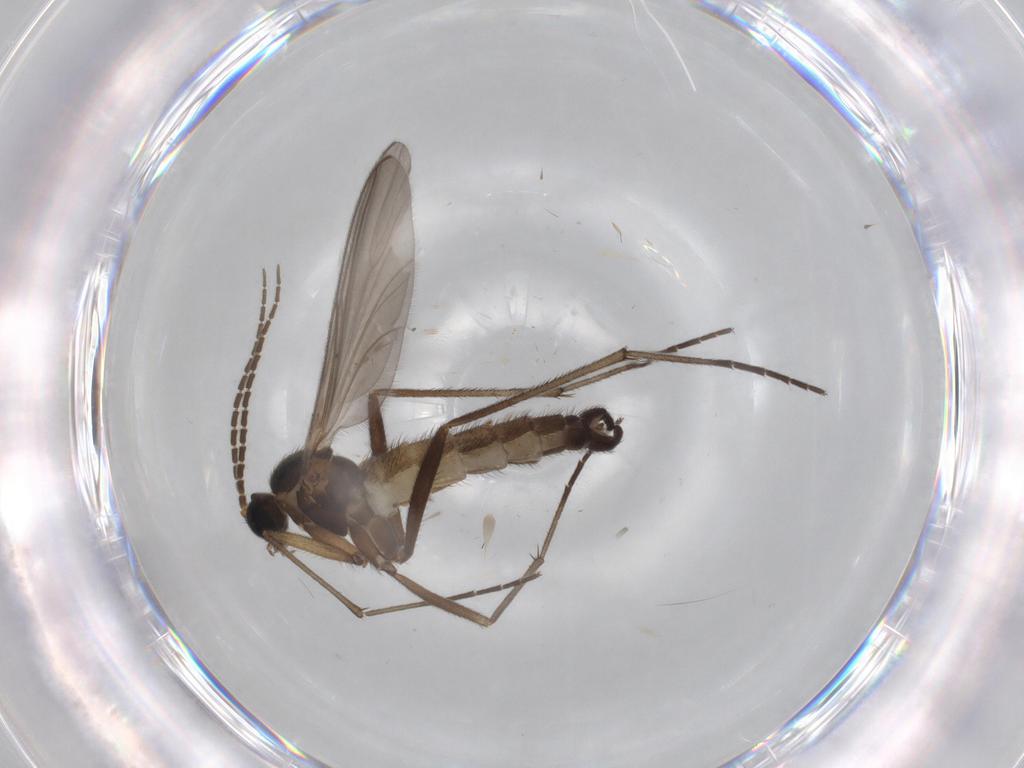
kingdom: Animalia
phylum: Arthropoda
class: Insecta
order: Diptera
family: Sciaridae
